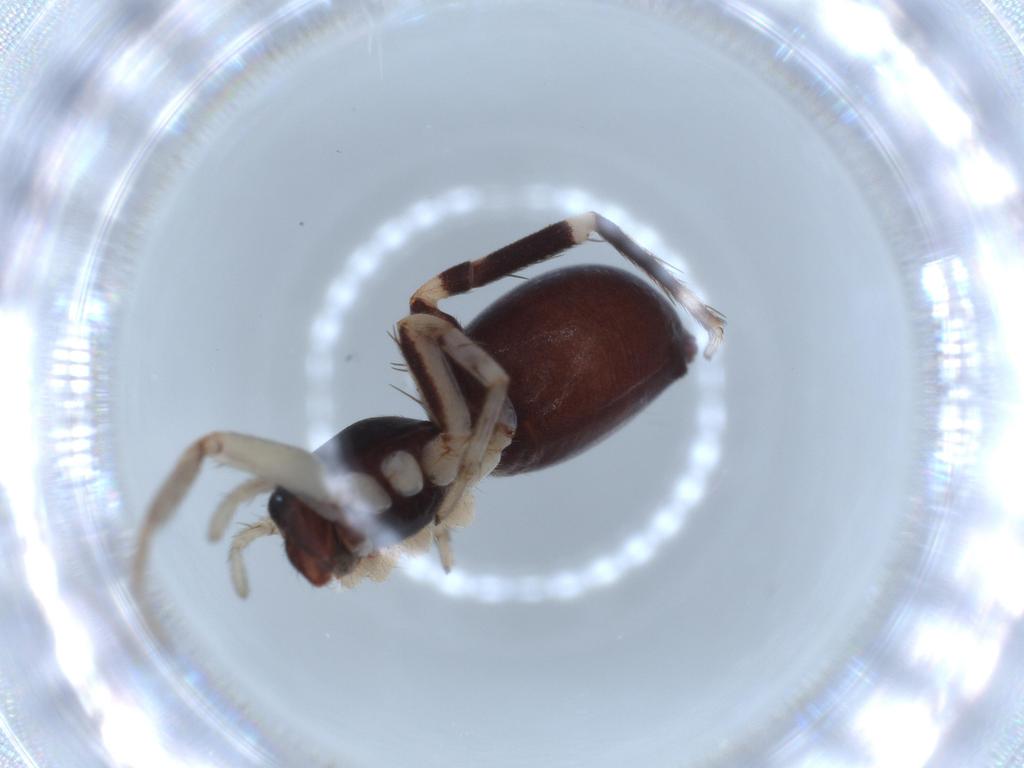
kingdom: Animalia
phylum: Arthropoda
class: Arachnida
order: Araneae
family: Corinnidae
